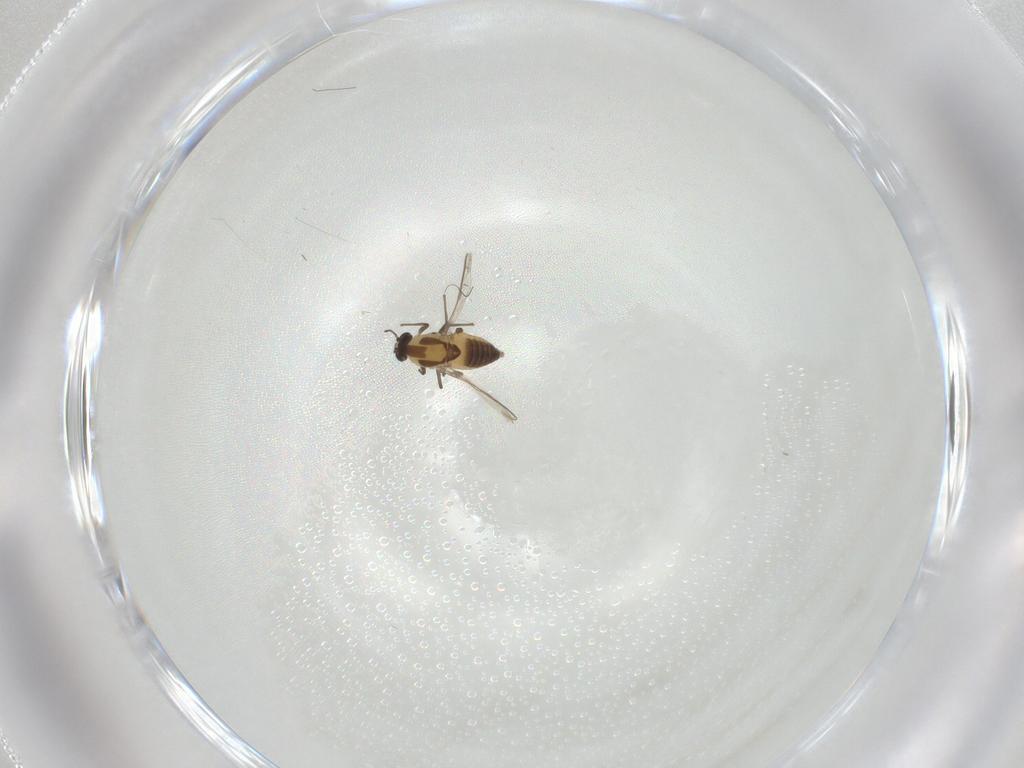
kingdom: Animalia
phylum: Arthropoda
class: Insecta
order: Diptera
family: Chironomidae
